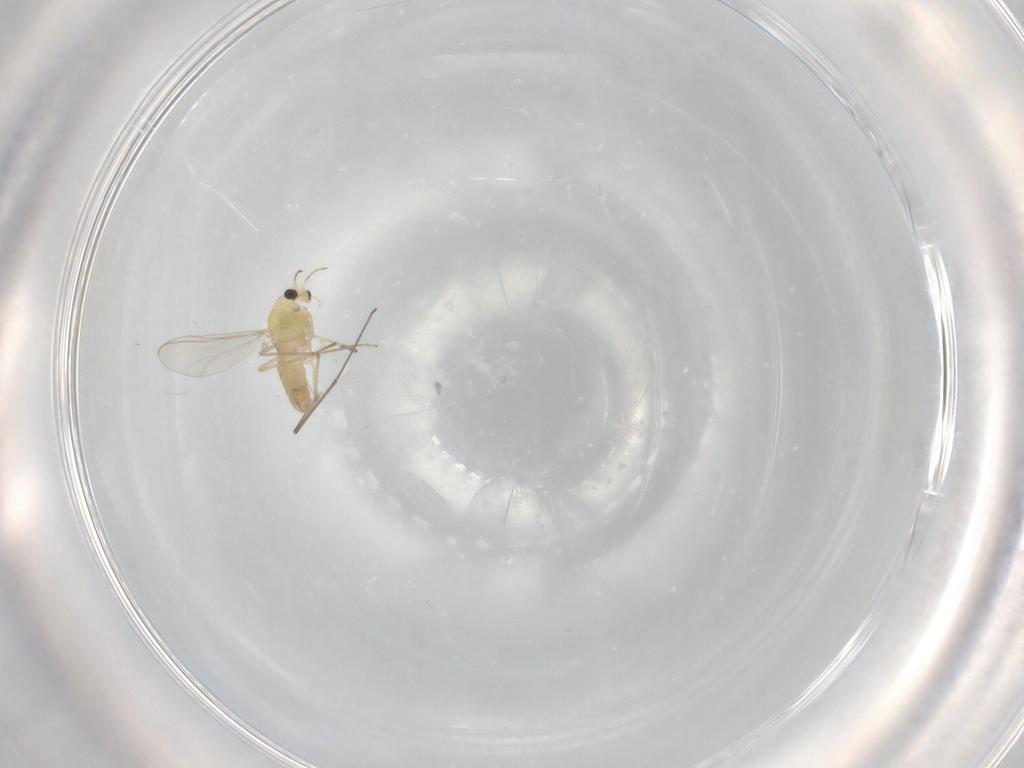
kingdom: Animalia
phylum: Arthropoda
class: Insecta
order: Diptera
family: Chironomidae
